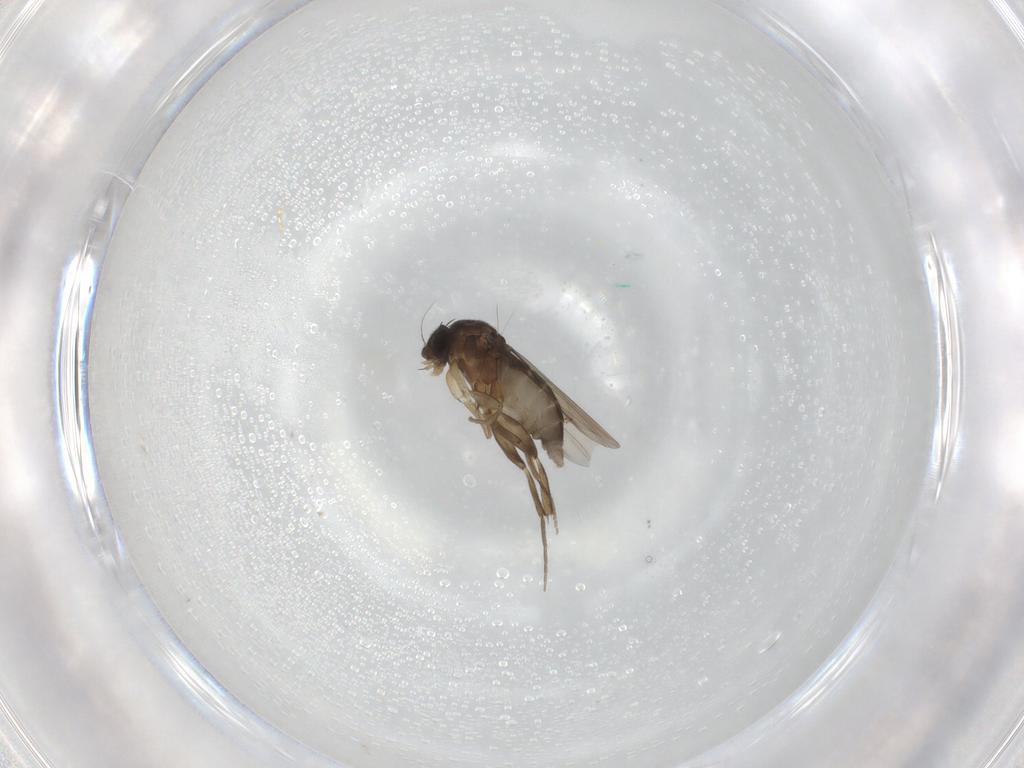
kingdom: Animalia
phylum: Arthropoda
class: Insecta
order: Diptera
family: Phoridae
